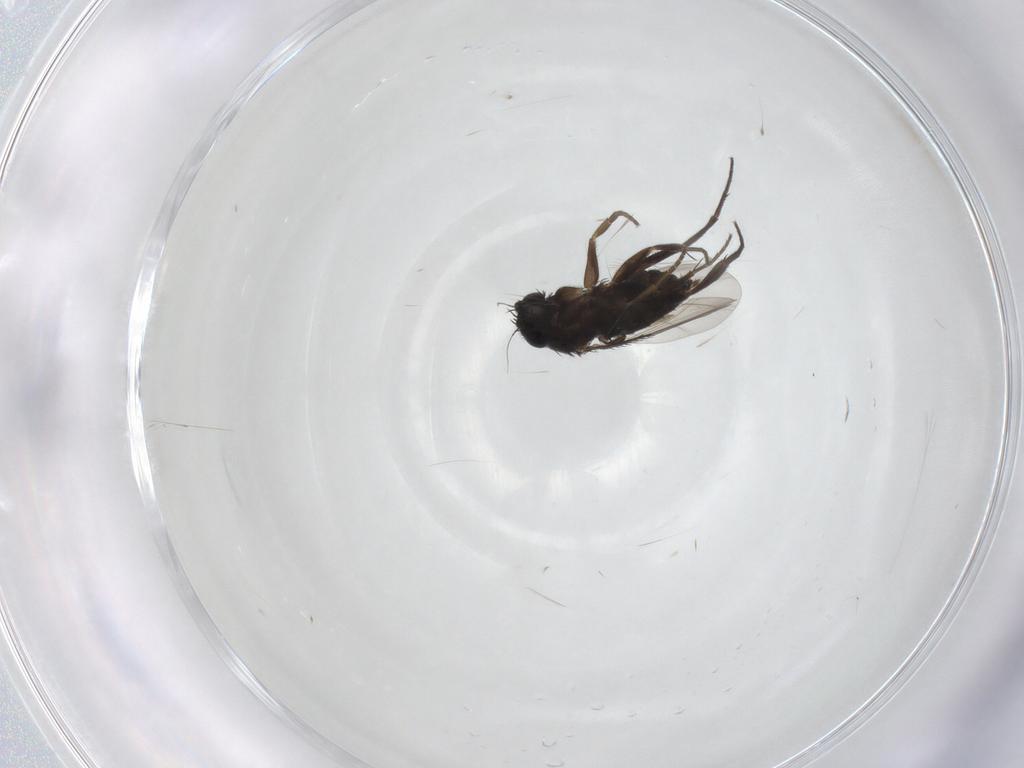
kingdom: Animalia
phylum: Arthropoda
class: Insecta
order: Diptera
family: Phoridae
